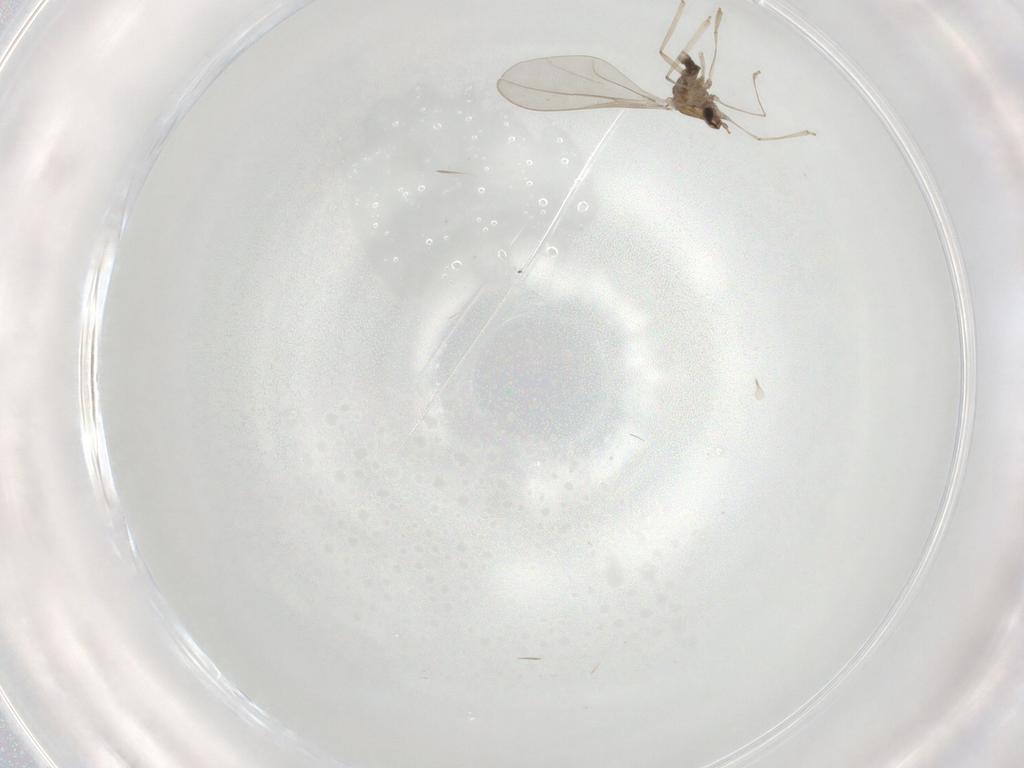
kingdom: Animalia
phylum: Arthropoda
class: Insecta
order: Diptera
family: Cecidomyiidae
